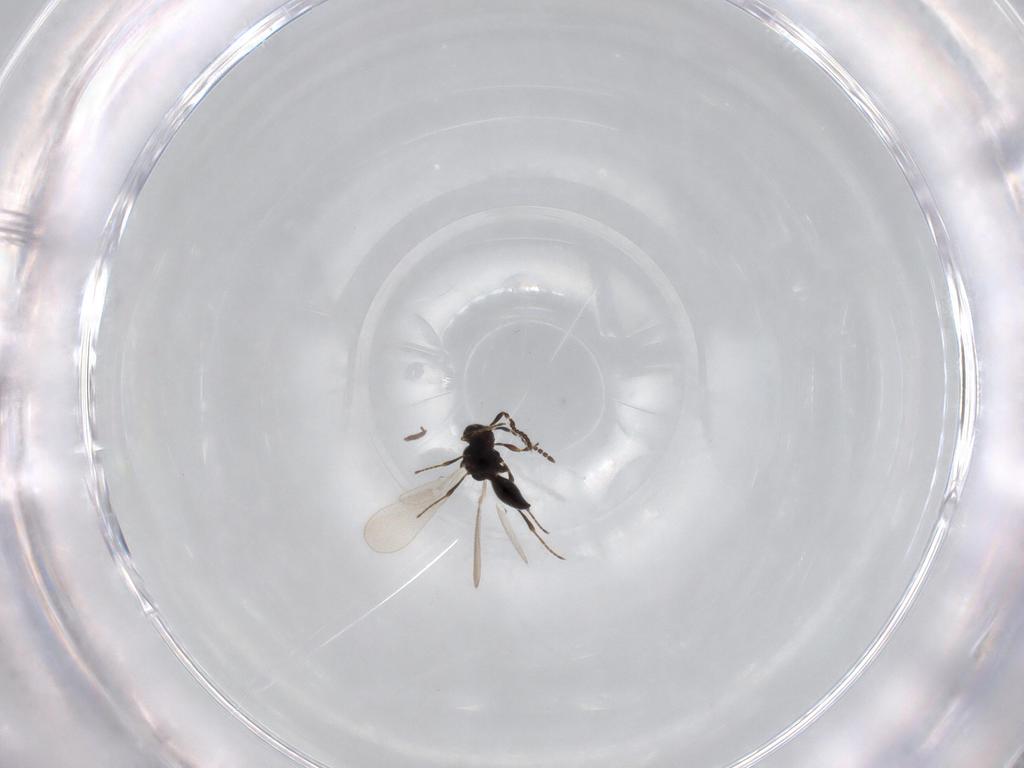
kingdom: Animalia
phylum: Arthropoda
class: Insecta
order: Hymenoptera
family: Platygastridae
